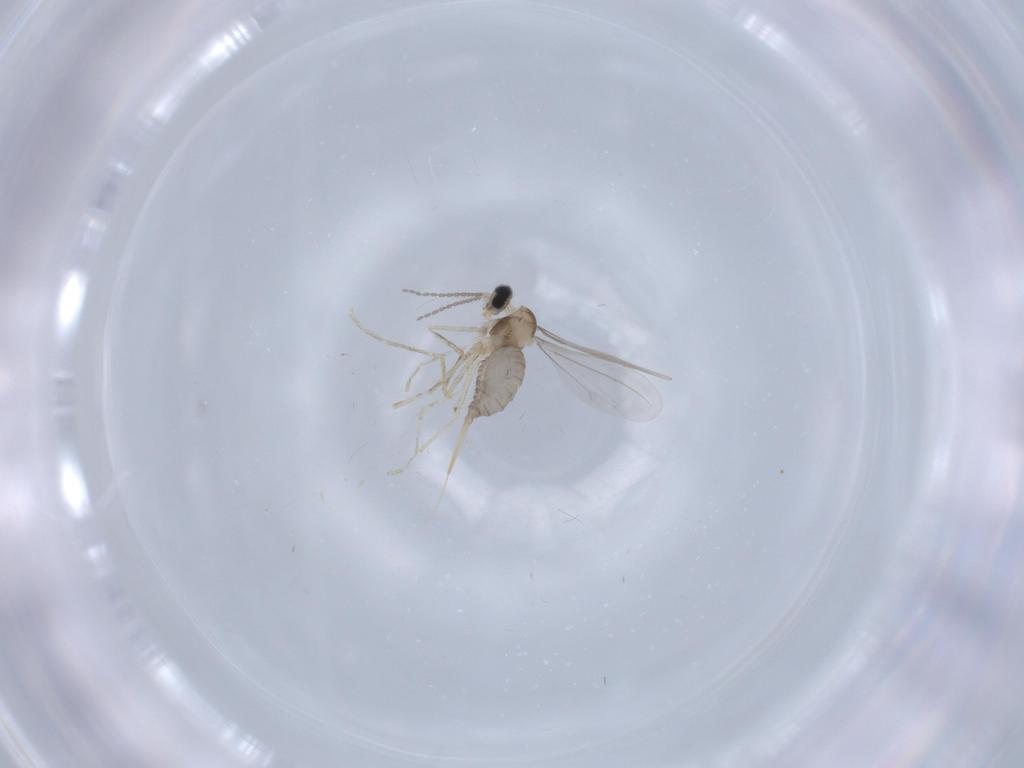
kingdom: Animalia
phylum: Arthropoda
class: Insecta
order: Diptera
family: Cecidomyiidae
